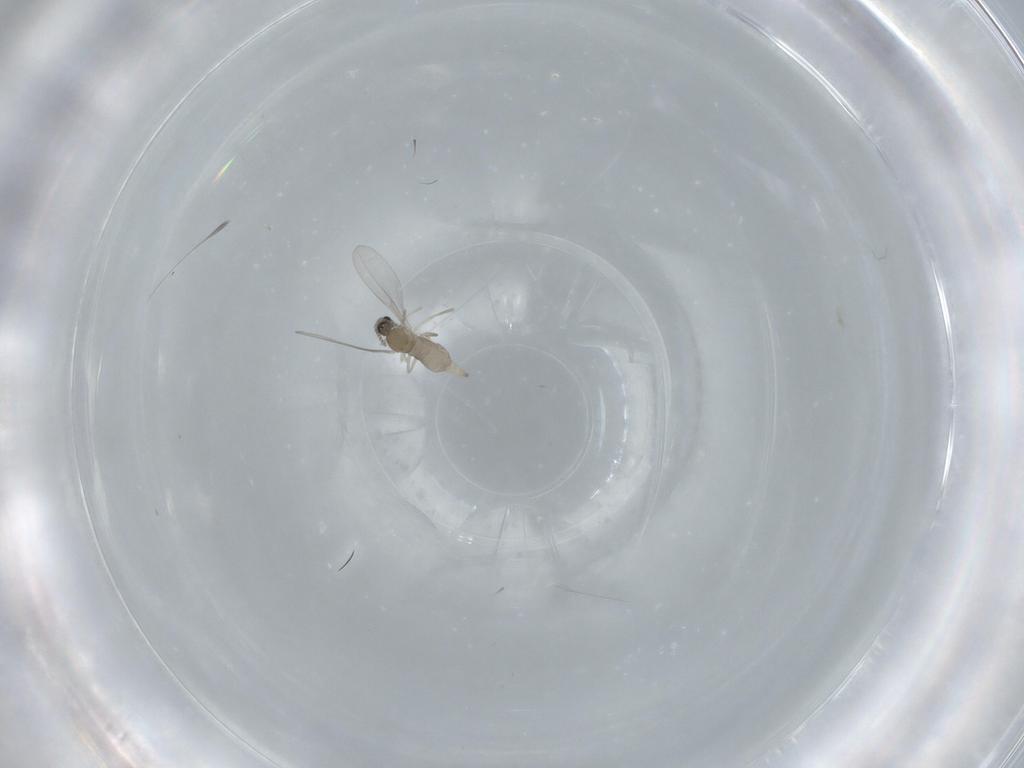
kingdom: Animalia
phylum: Arthropoda
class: Insecta
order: Diptera
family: Cecidomyiidae
